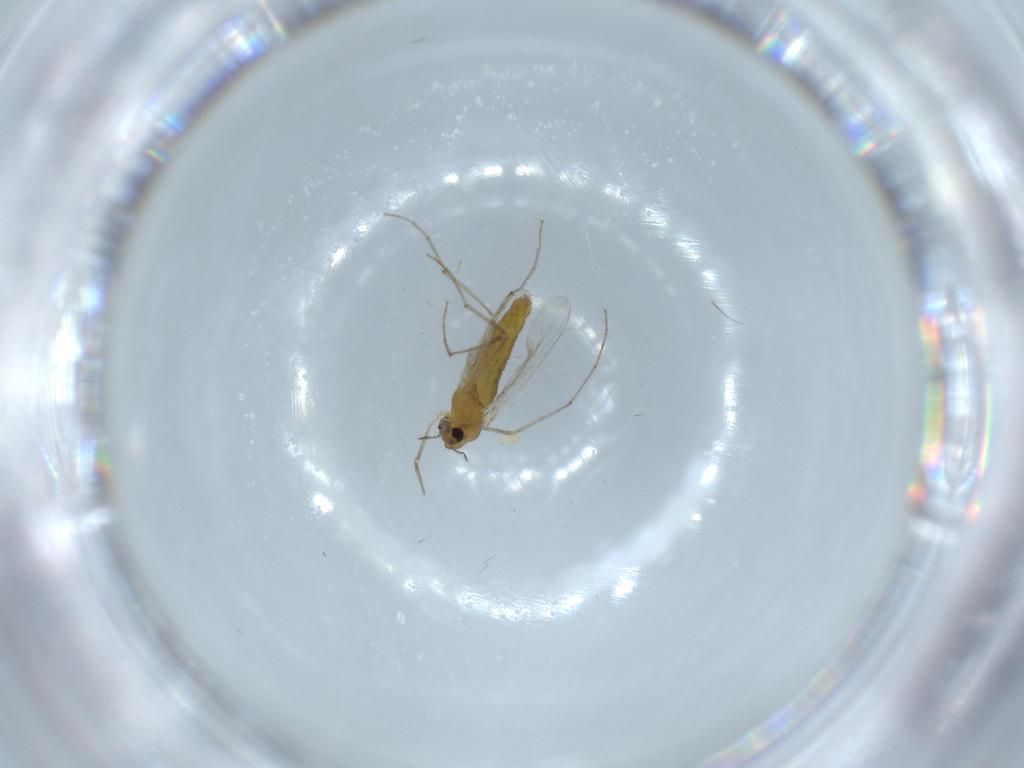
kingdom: Animalia
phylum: Arthropoda
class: Insecta
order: Diptera
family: Chironomidae
